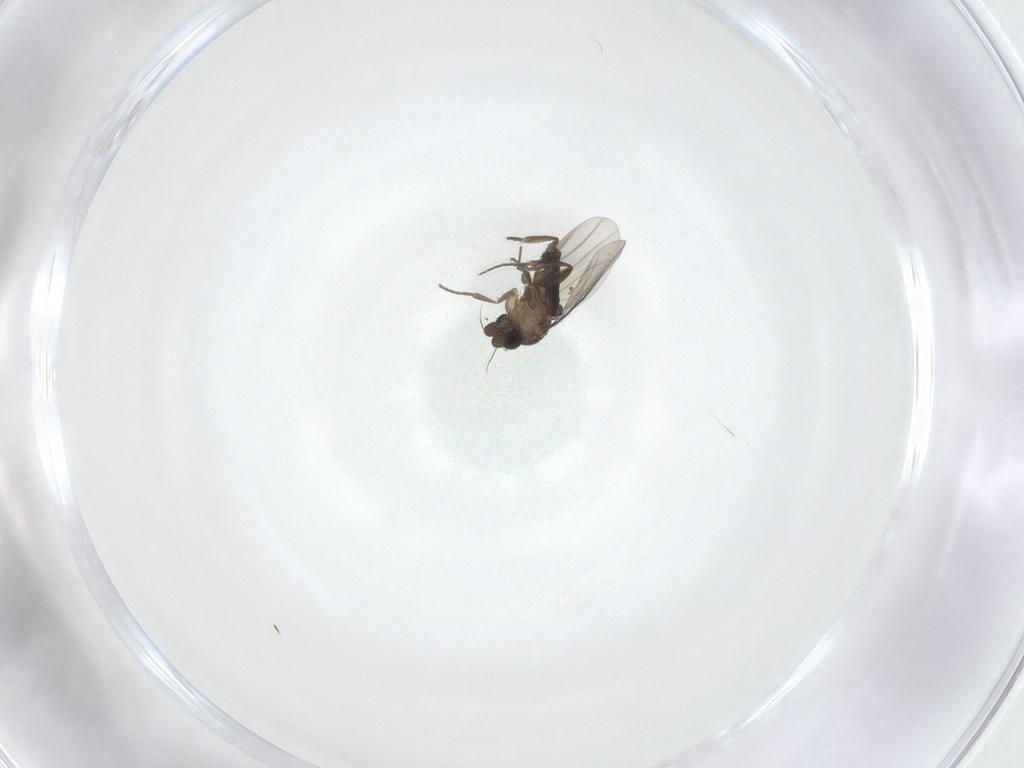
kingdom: Animalia
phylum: Arthropoda
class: Insecta
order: Diptera
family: Phoridae
